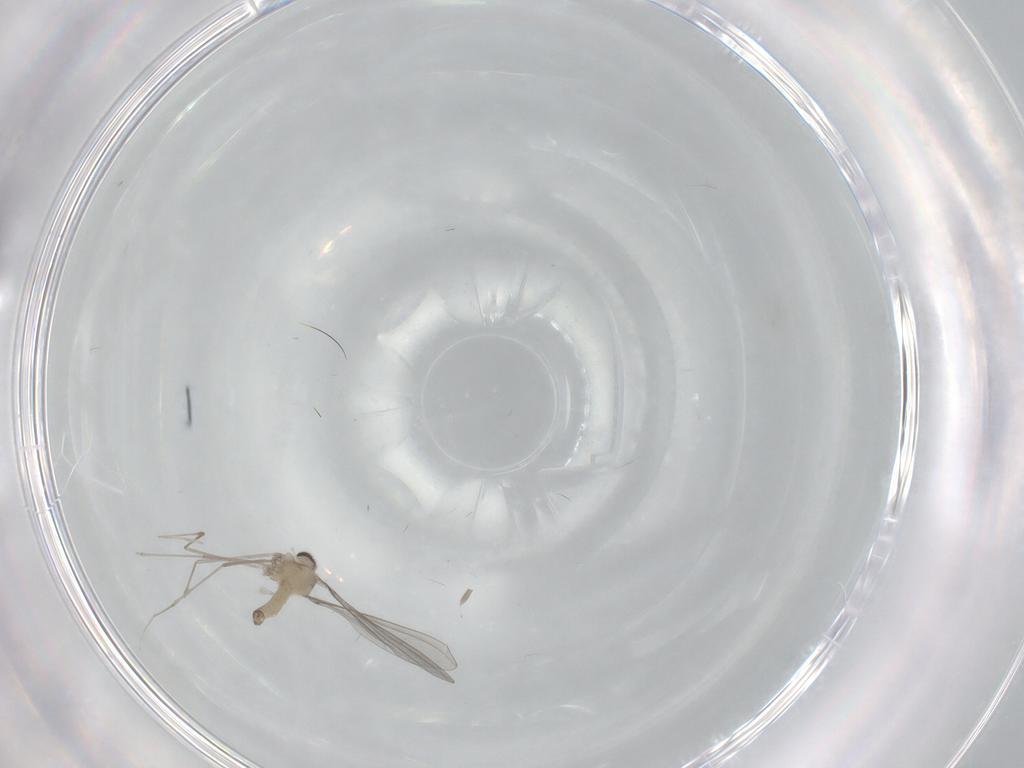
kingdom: Animalia
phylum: Arthropoda
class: Insecta
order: Diptera
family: Cecidomyiidae
